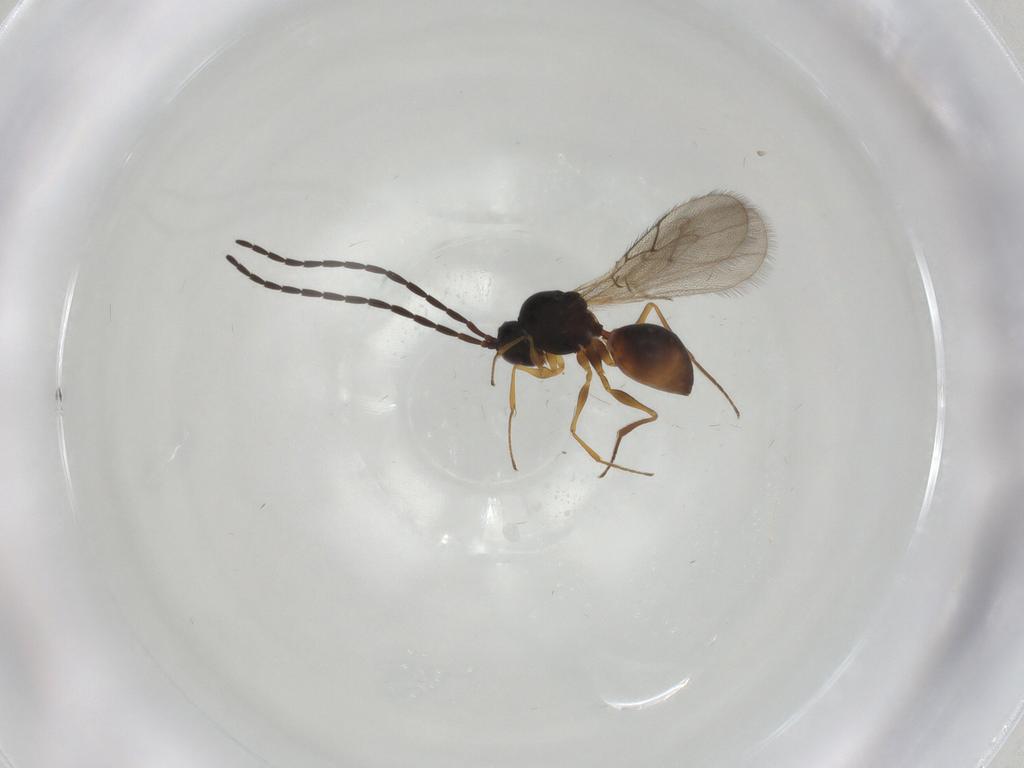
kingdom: Animalia
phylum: Arthropoda
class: Insecta
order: Hymenoptera
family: Figitidae
